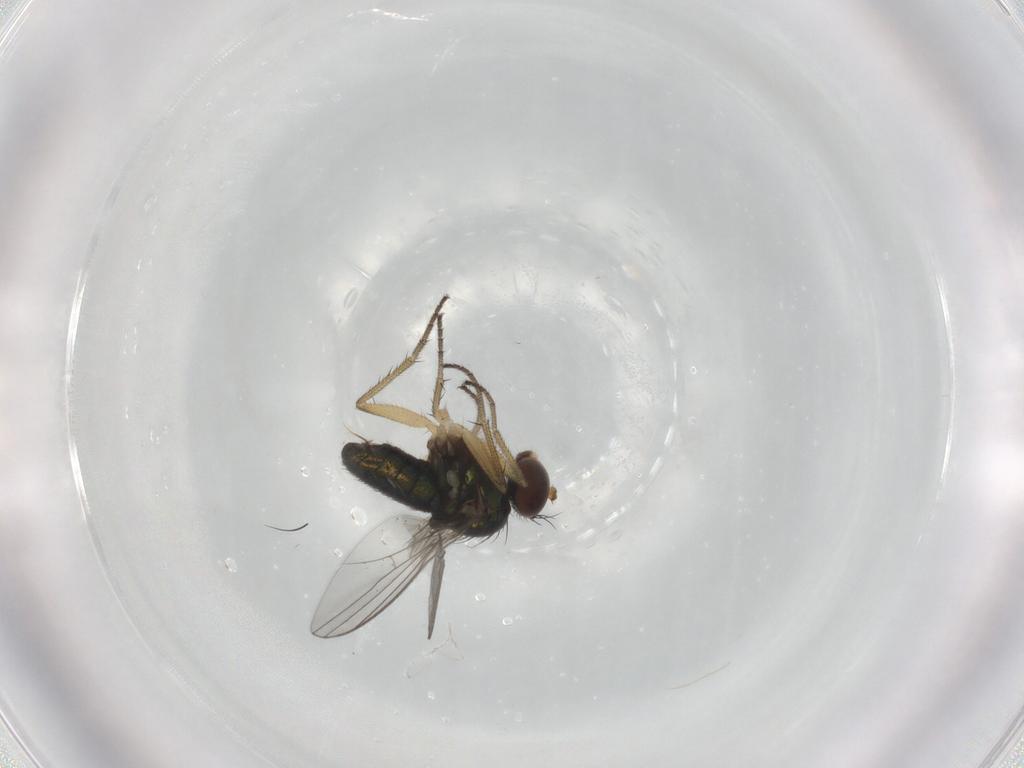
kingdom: Animalia
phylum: Arthropoda
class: Insecta
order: Diptera
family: Dolichopodidae
